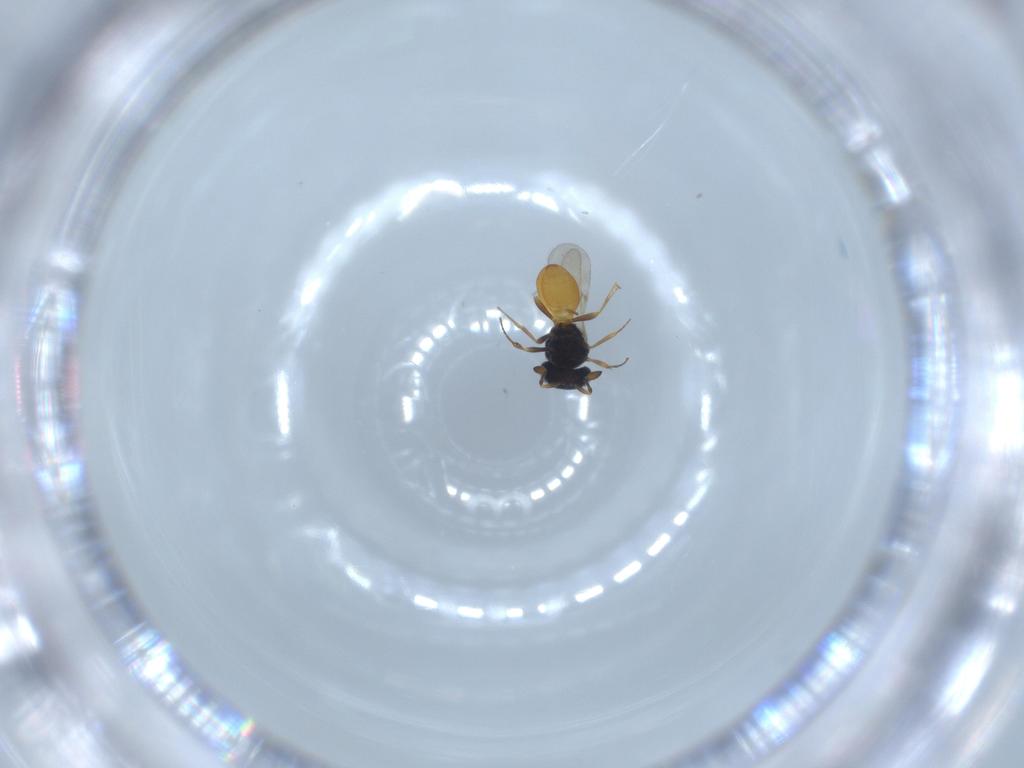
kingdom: Animalia
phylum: Arthropoda
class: Insecta
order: Hymenoptera
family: Scelionidae
